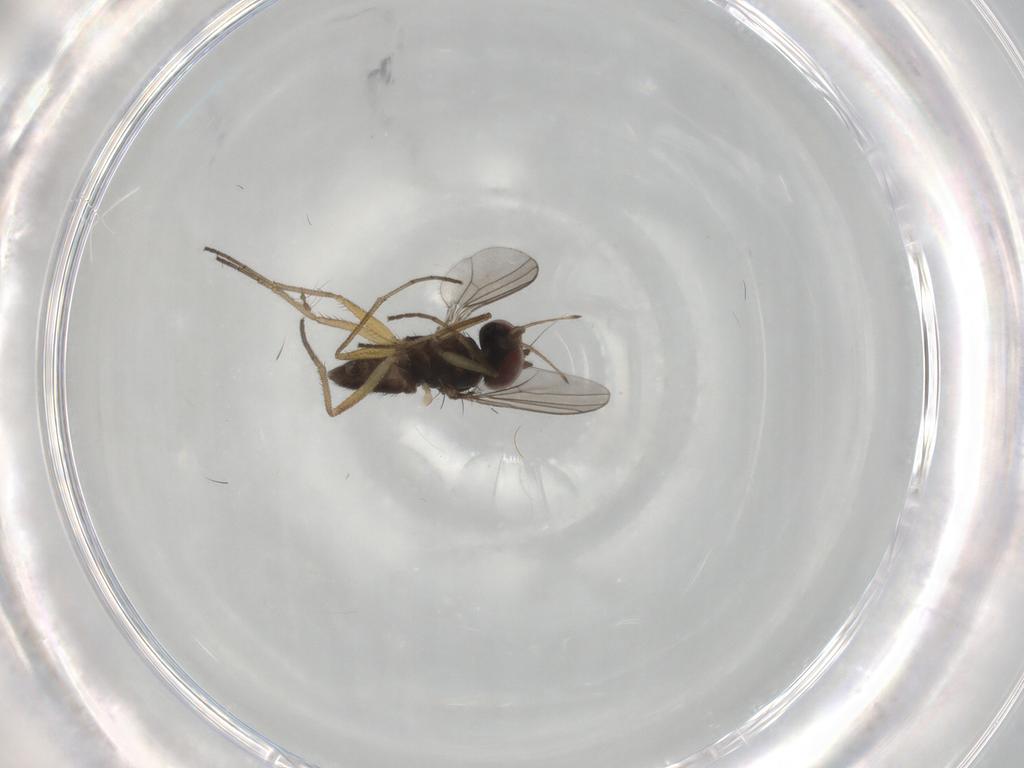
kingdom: Animalia
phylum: Arthropoda
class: Insecta
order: Diptera
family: Dolichopodidae
